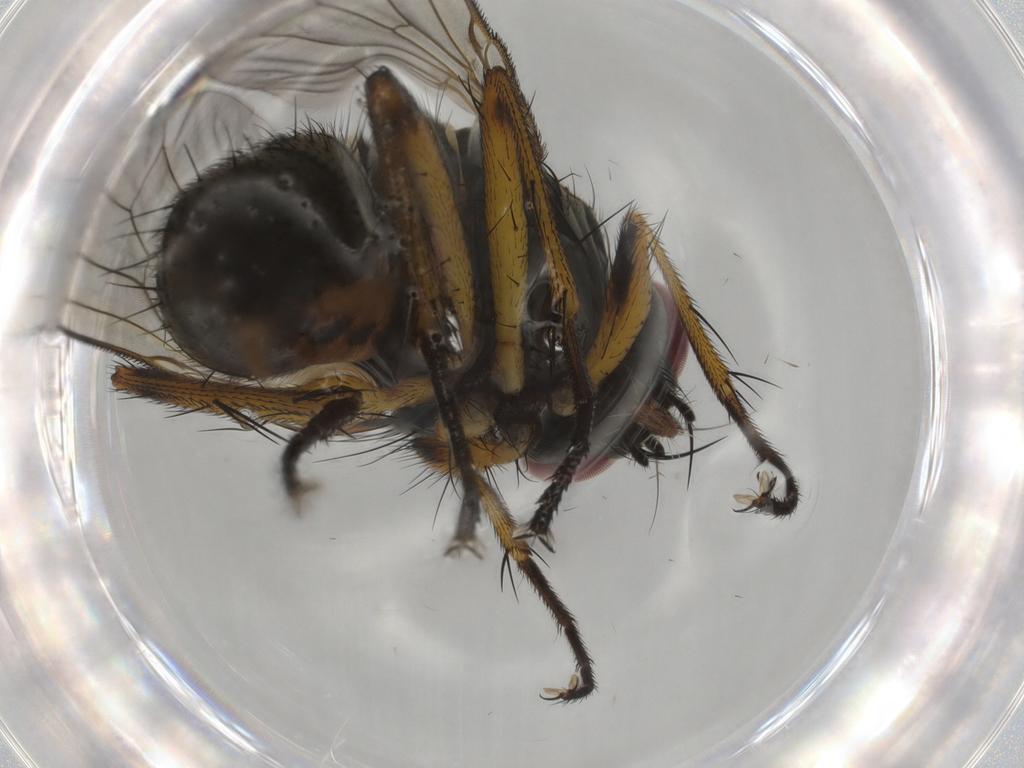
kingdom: Animalia
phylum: Arthropoda
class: Insecta
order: Diptera
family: Muscidae
